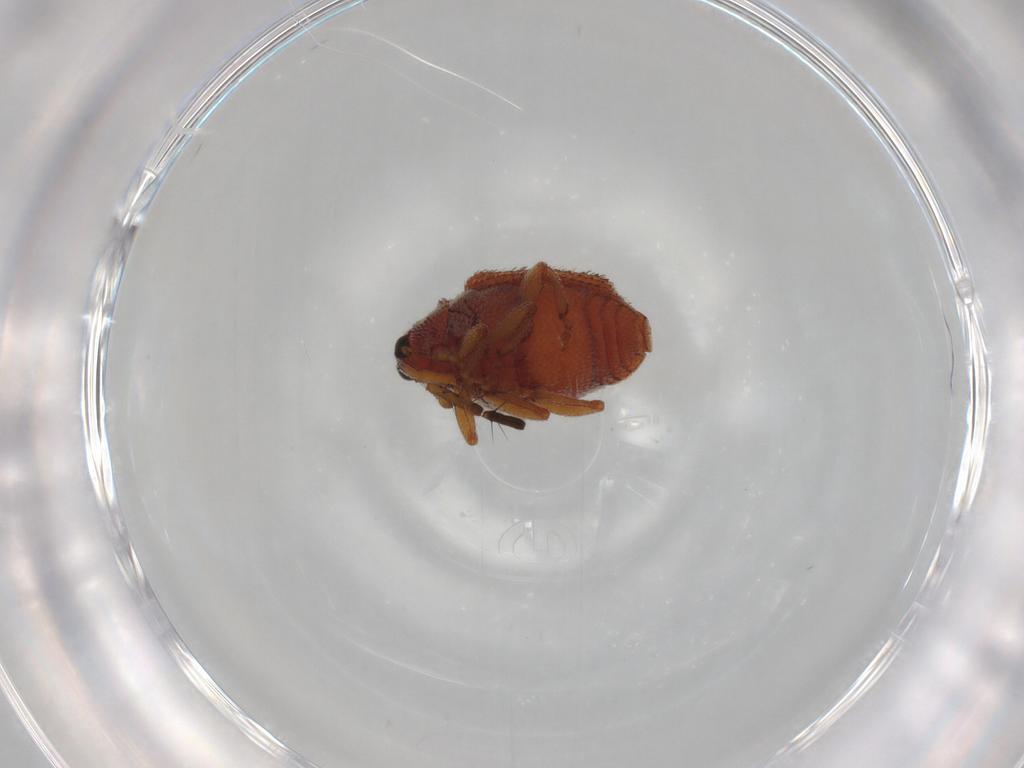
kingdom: Animalia
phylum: Arthropoda
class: Insecta
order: Coleoptera
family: Curculionidae
